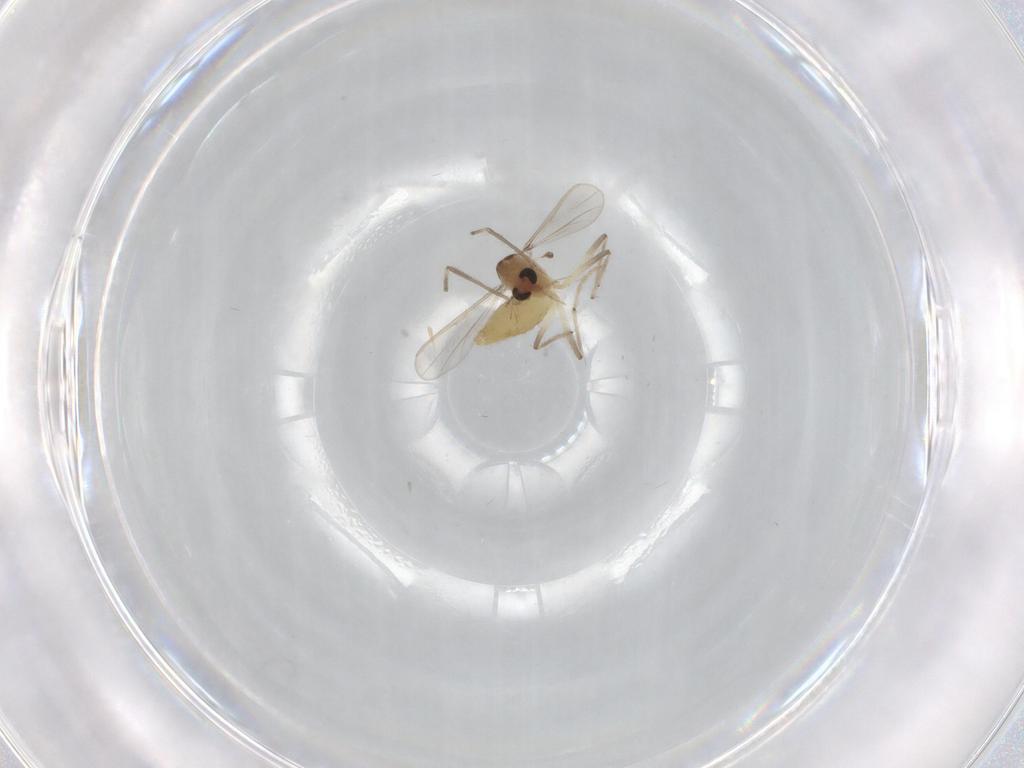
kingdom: Animalia
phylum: Arthropoda
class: Insecta
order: Diptera
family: Chironomidae
